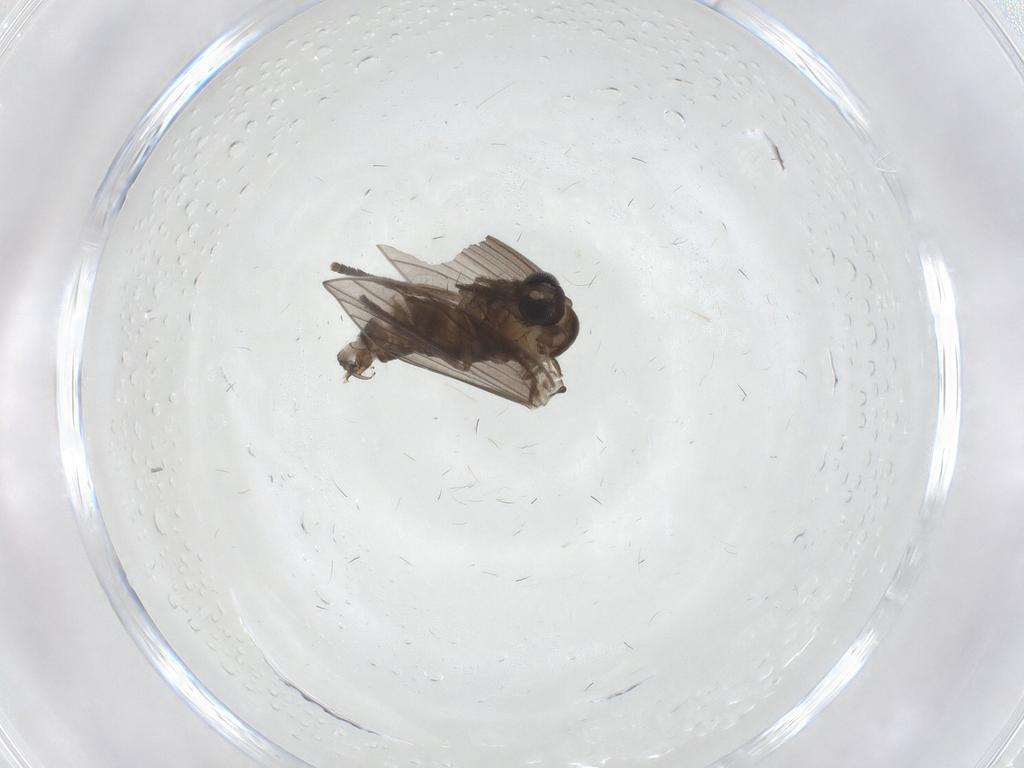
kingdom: Animalia
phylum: Arthropoda
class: Insecta
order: Diptera
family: Psychodidae
